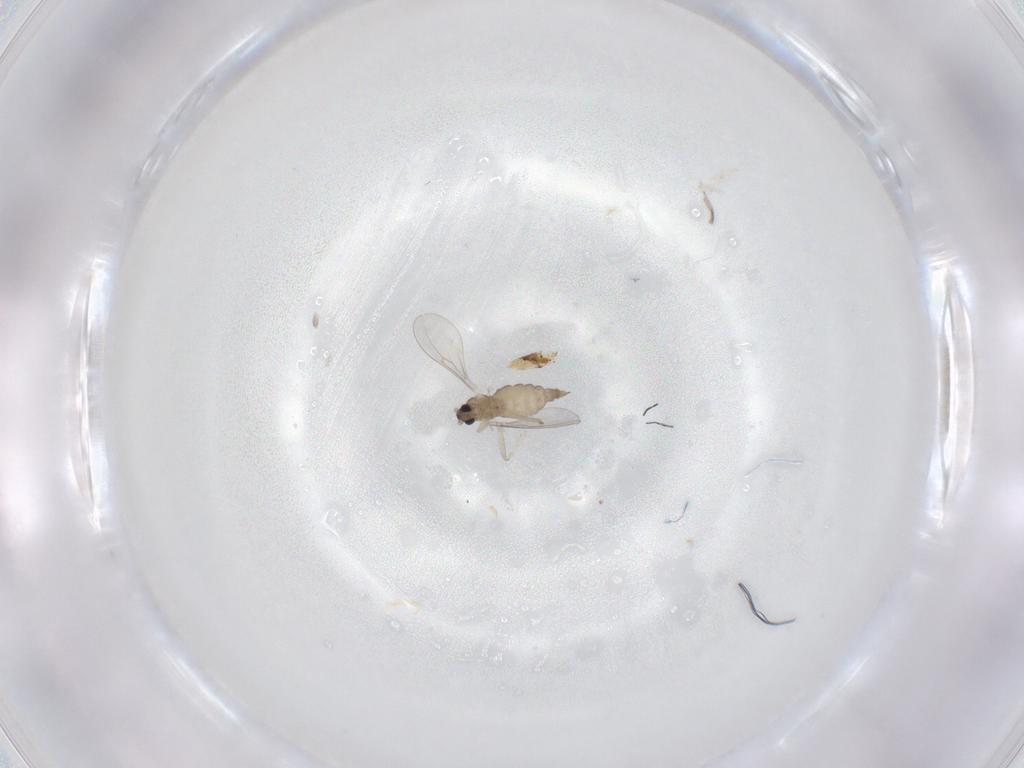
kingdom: Animalia
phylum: Arthropoda
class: Insecta
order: Diptera
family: Cecidomyiidae
